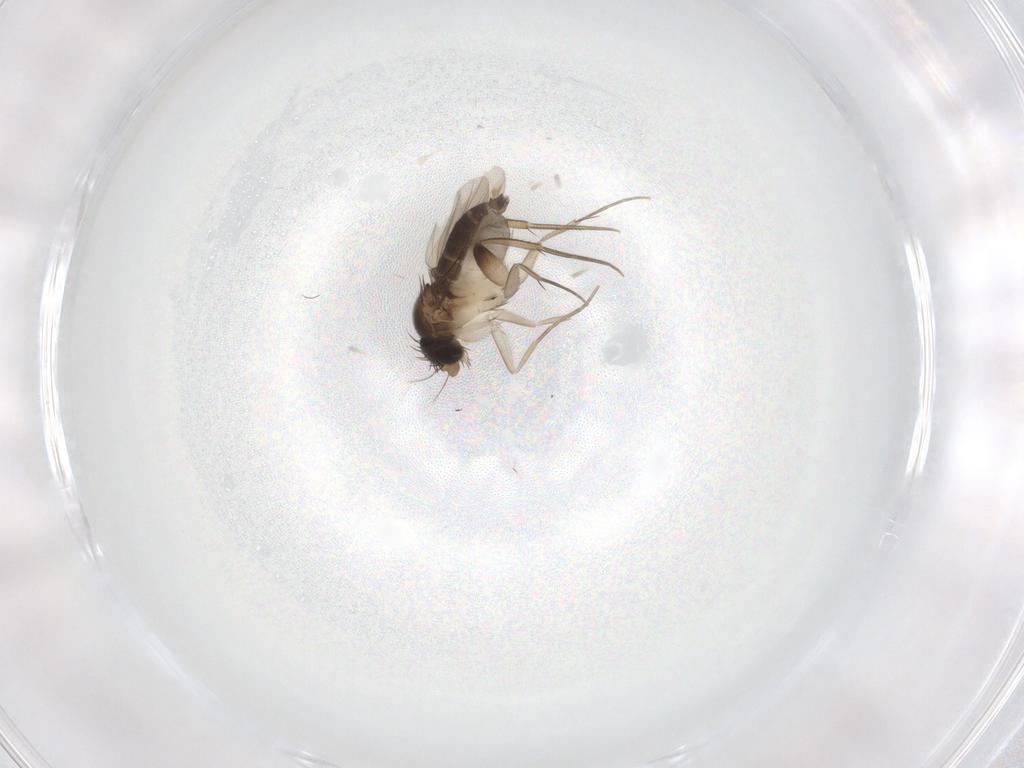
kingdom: Animalia
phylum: Arthropoda
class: Insecta
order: Diptera
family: Phoridae
